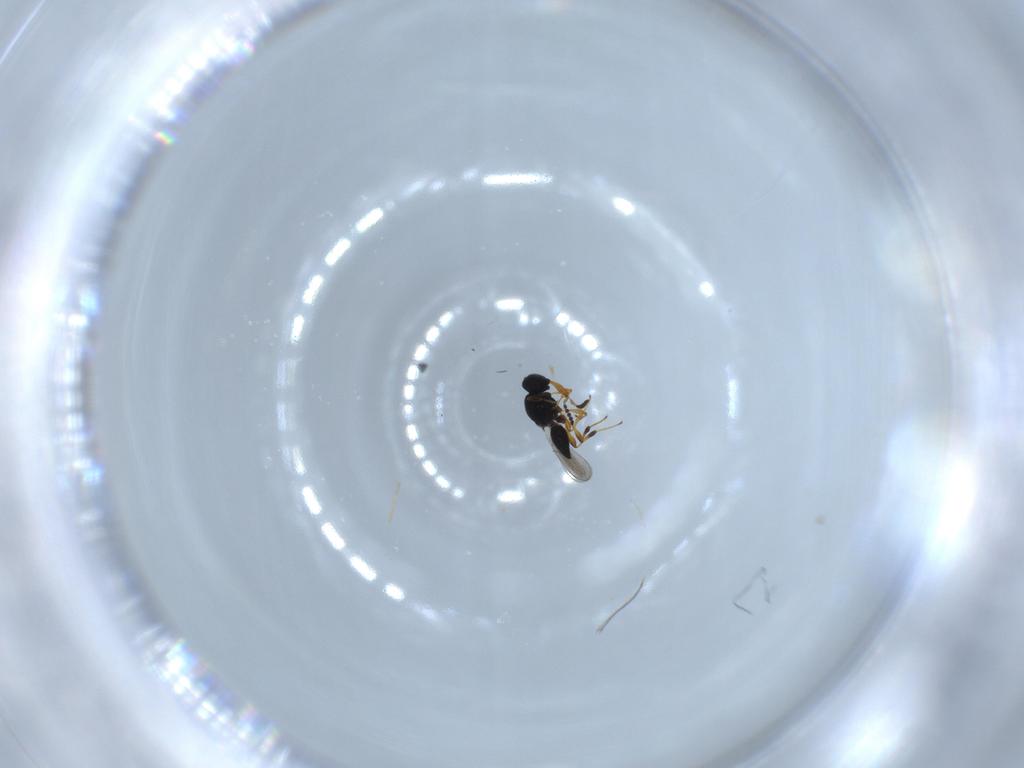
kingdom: Animalia
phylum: Arthropoda
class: Insecta
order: Hymenoptera
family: Platygastridae
